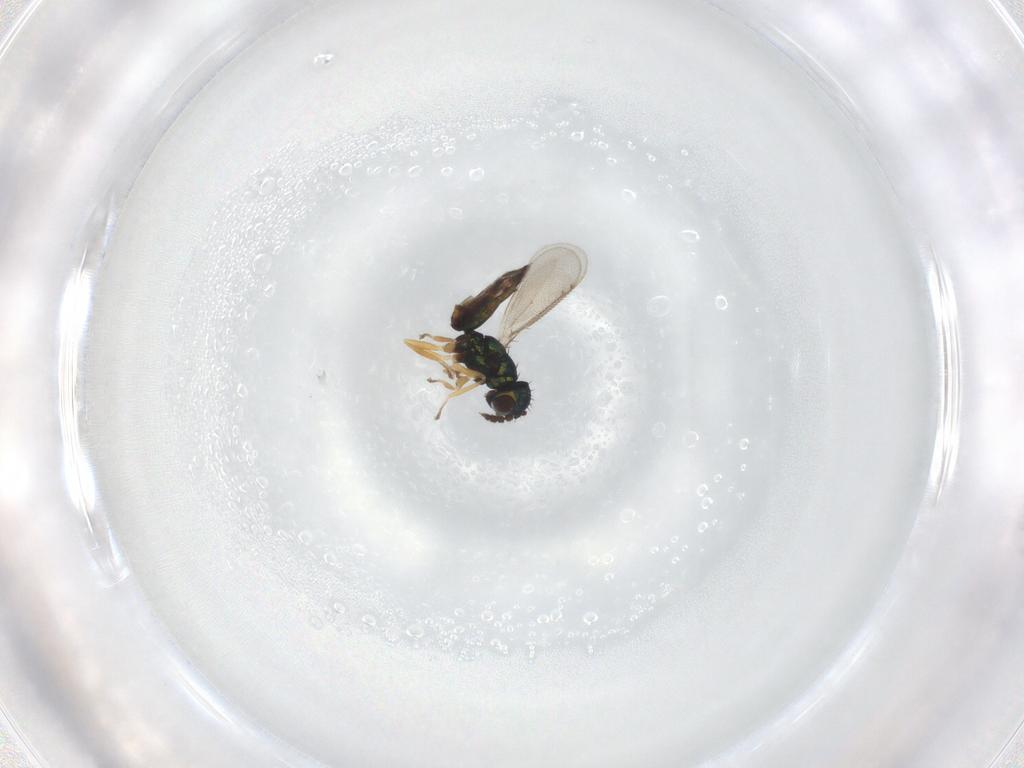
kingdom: Animalia
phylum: Arthropoda
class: Insecta
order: Hymenoptera
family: Eulophidae
